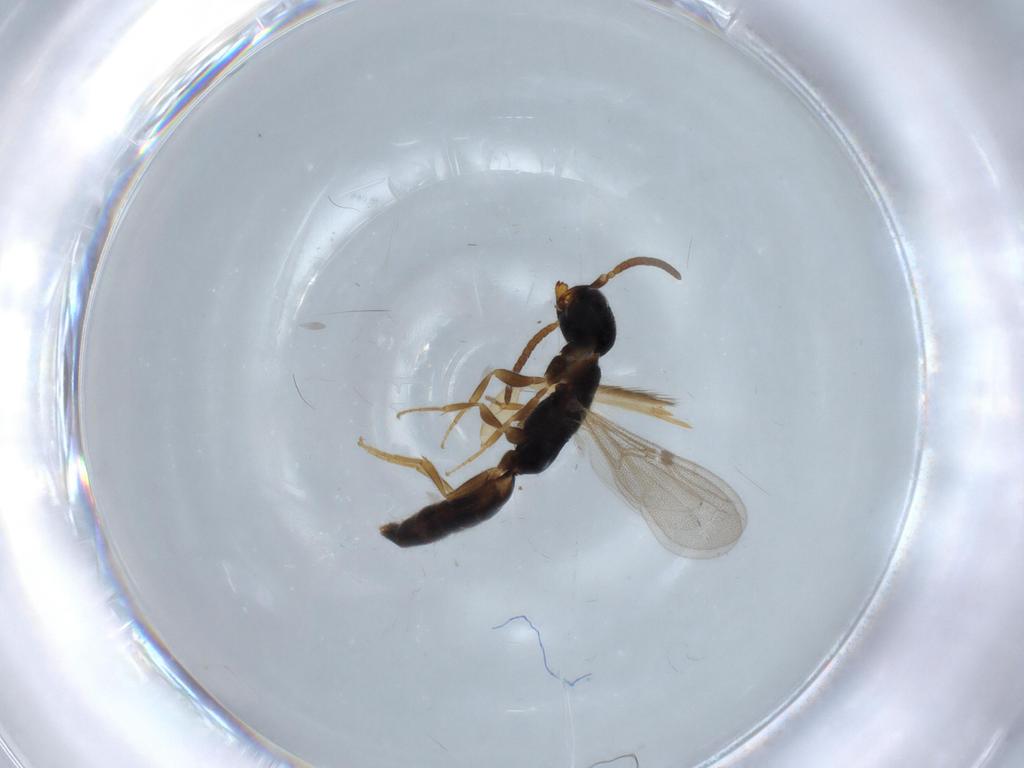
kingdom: Animalia
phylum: Arthropoda
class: Insecta
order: Hymenoptera
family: Bethylidae
